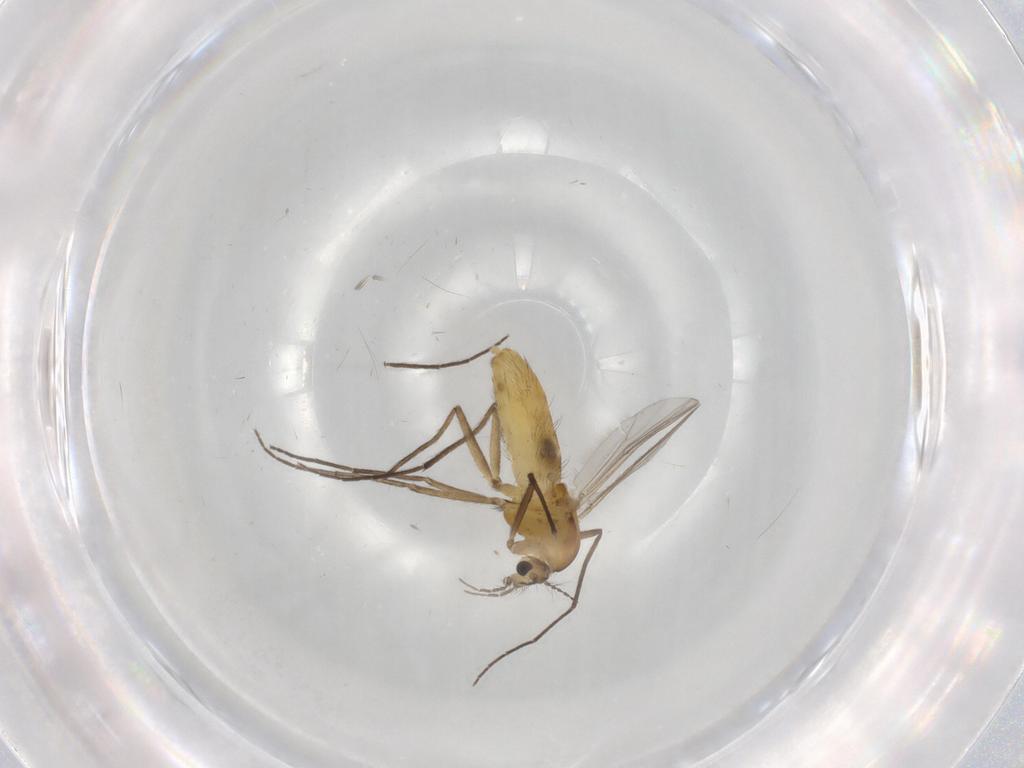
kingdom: Animalia
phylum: Arthropoda
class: Insecta
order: Diptera
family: Chironomidae
